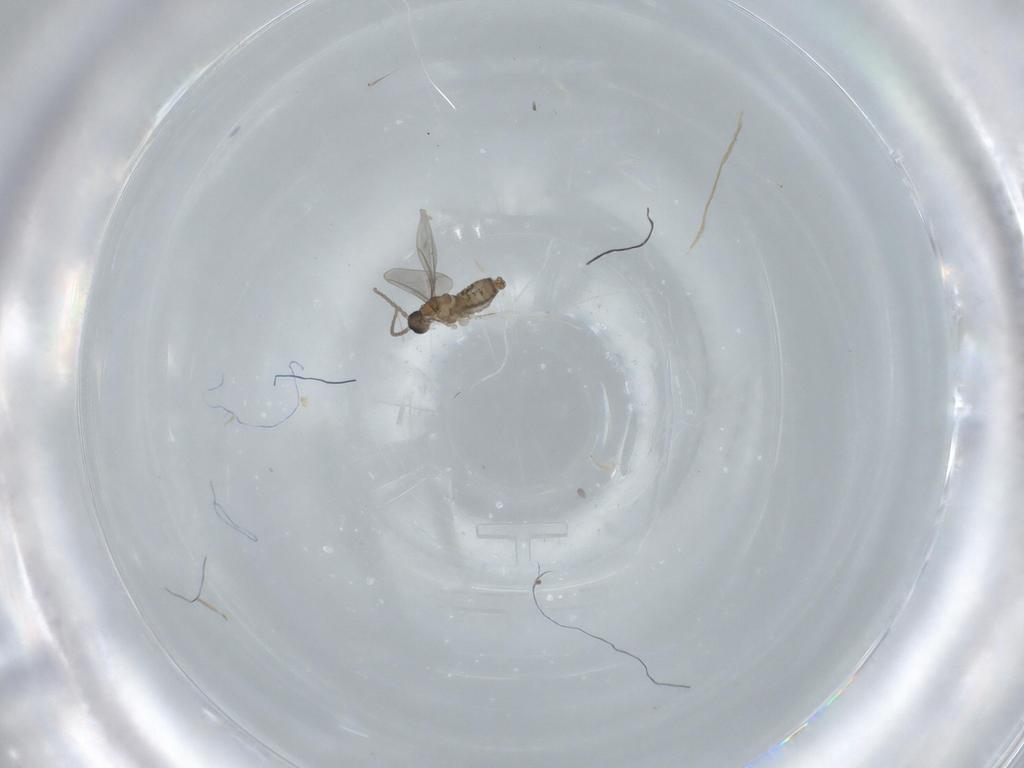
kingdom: Animalia
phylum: Arthropoda
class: Insecta
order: Diptera
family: Cecidomyiidae
